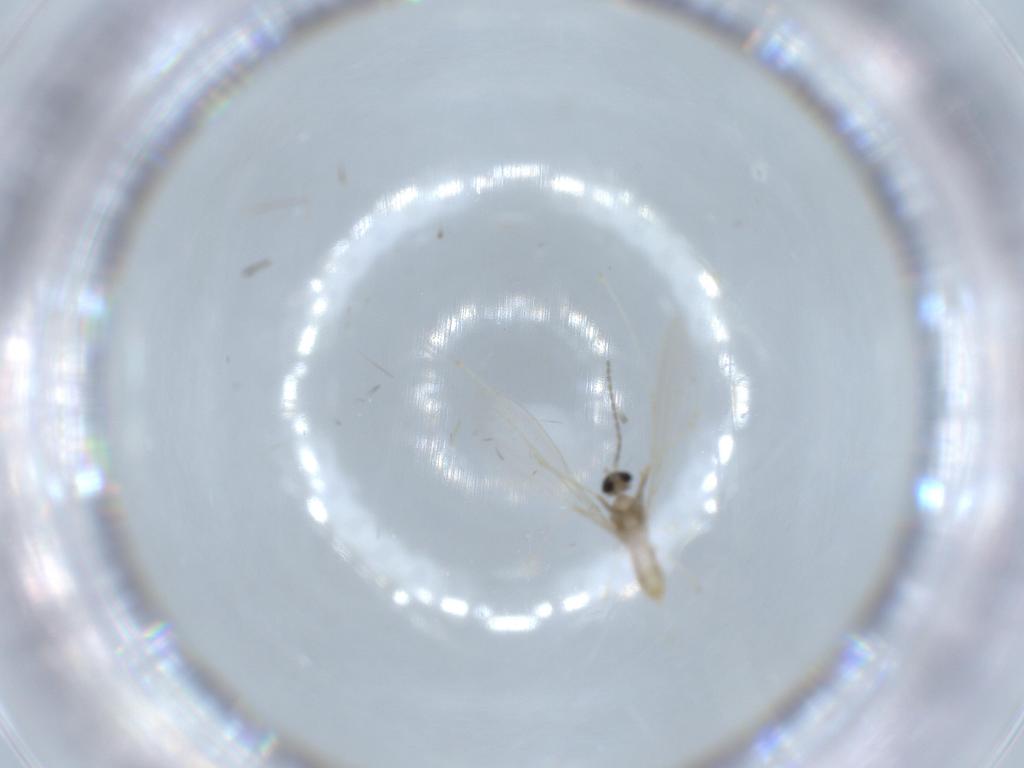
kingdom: Animalia
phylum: Arthropoda
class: Insecta
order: Diptera
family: Cecidomyiidae
